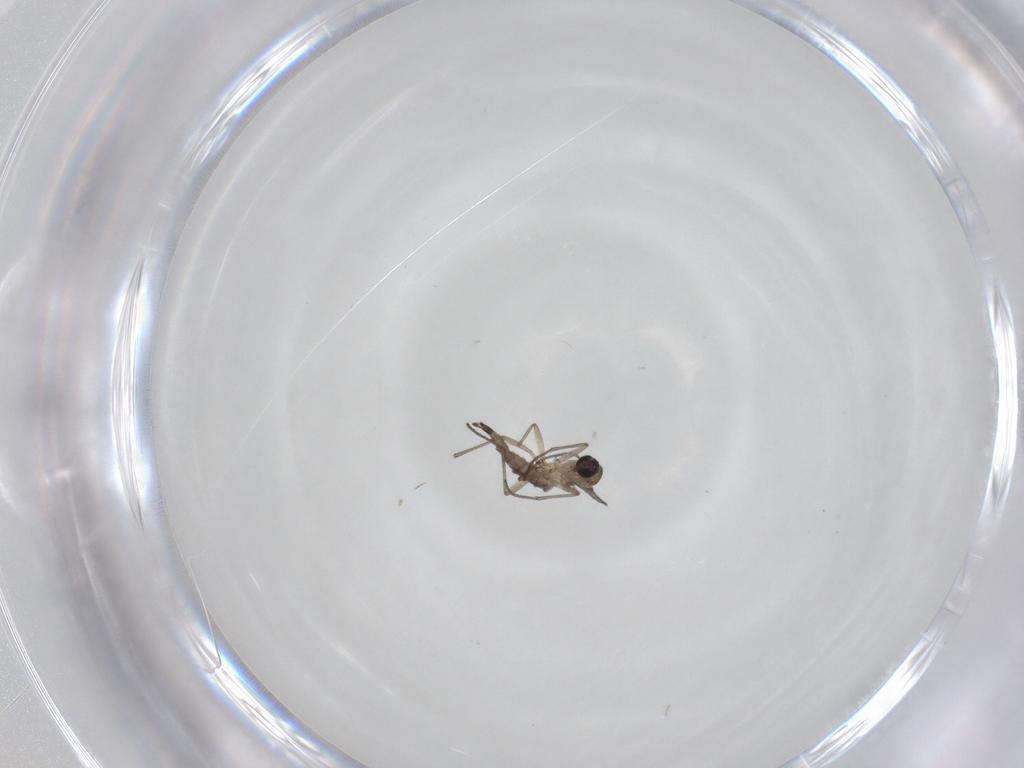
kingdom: Animalia
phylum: Arthropoda
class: Insecta
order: Diptera
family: Sciaridae
